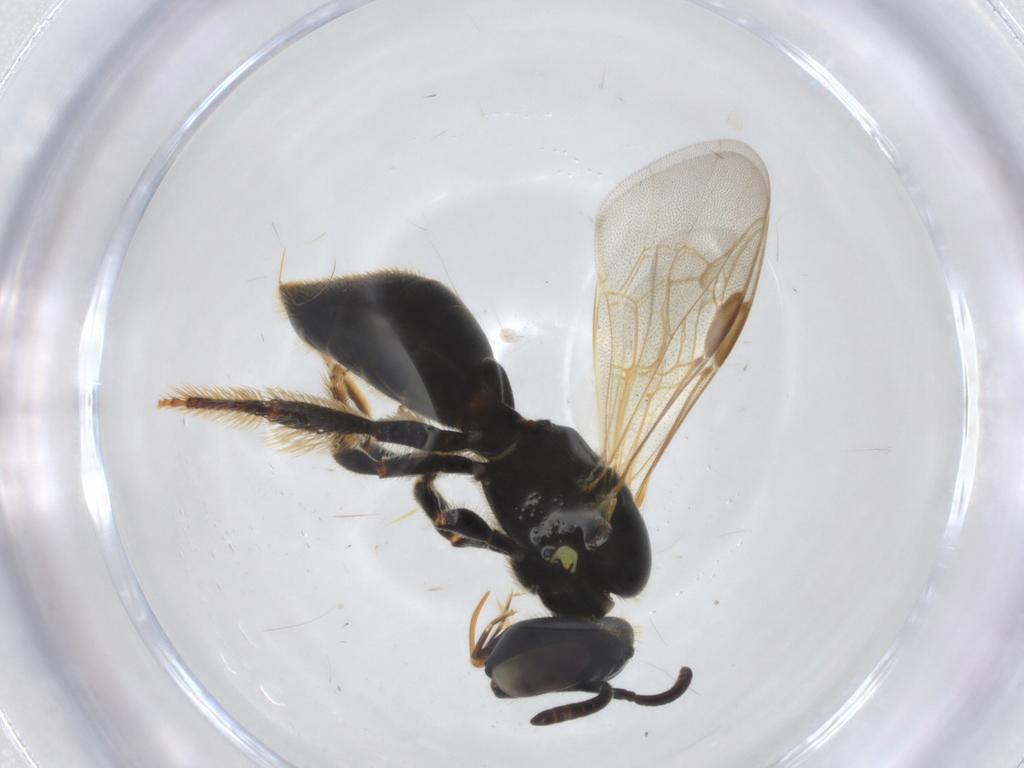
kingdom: Animalia
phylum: Arthropoda
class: Insecta
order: Hymenoptera
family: Apidae
